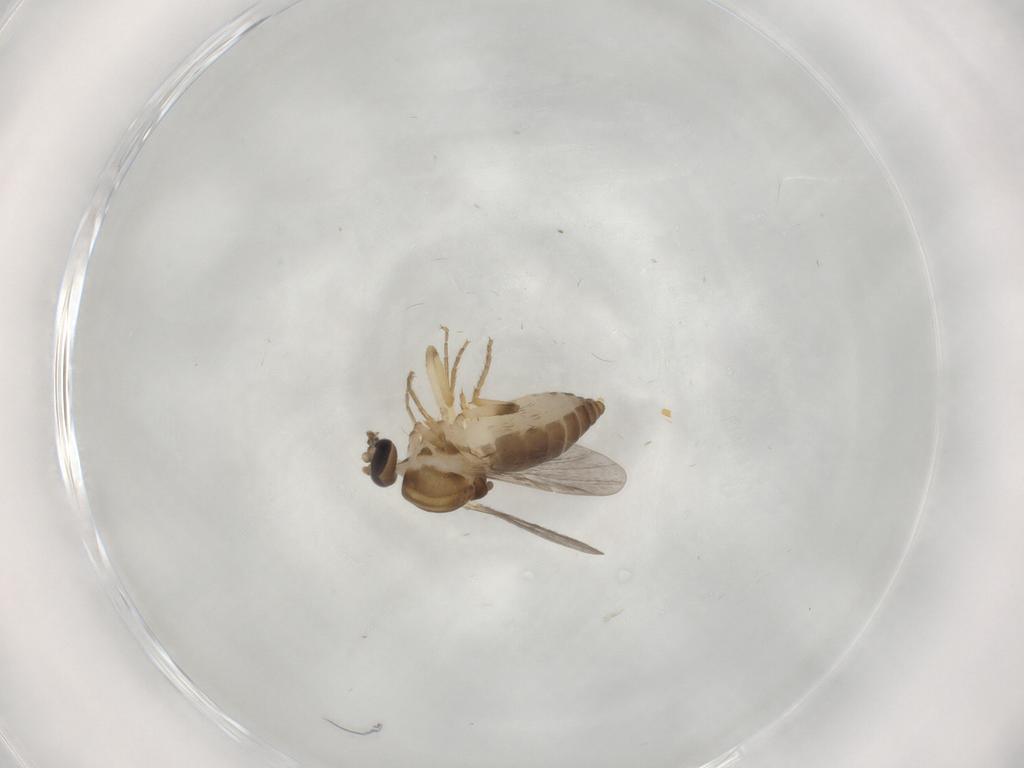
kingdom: Animalia
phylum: Arthropoda
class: Insecta
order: Diptera
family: Ceratopogonidae
